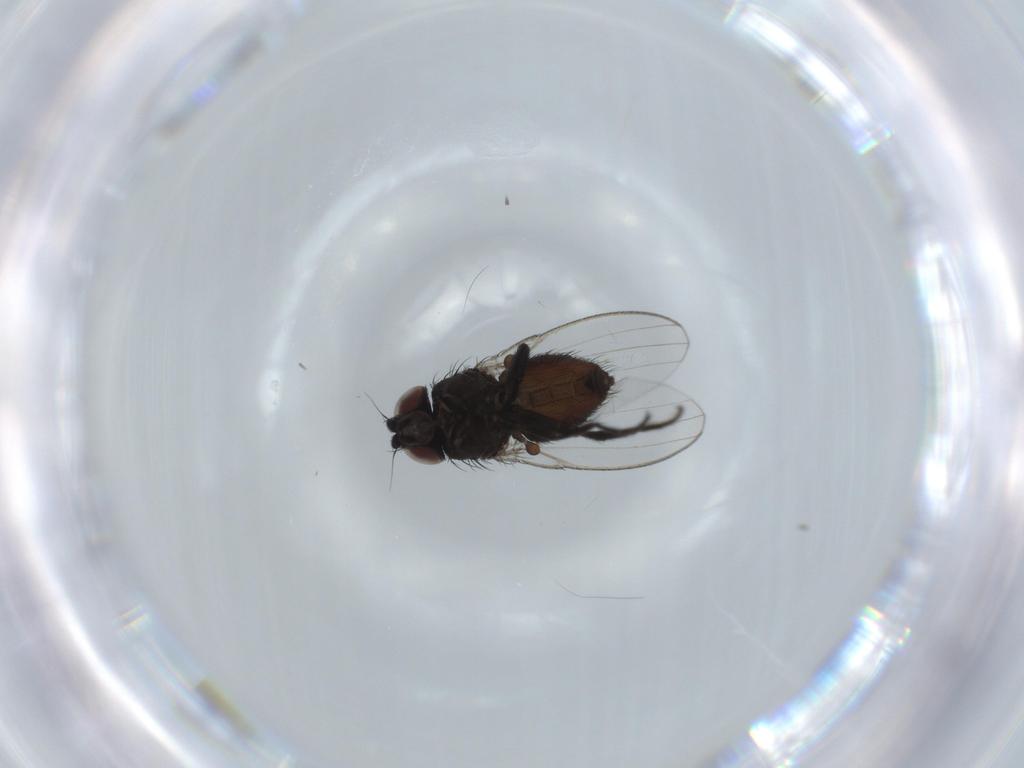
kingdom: Animalia
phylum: Arthropoda
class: Insecta
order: Diptera
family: Milichiidae
